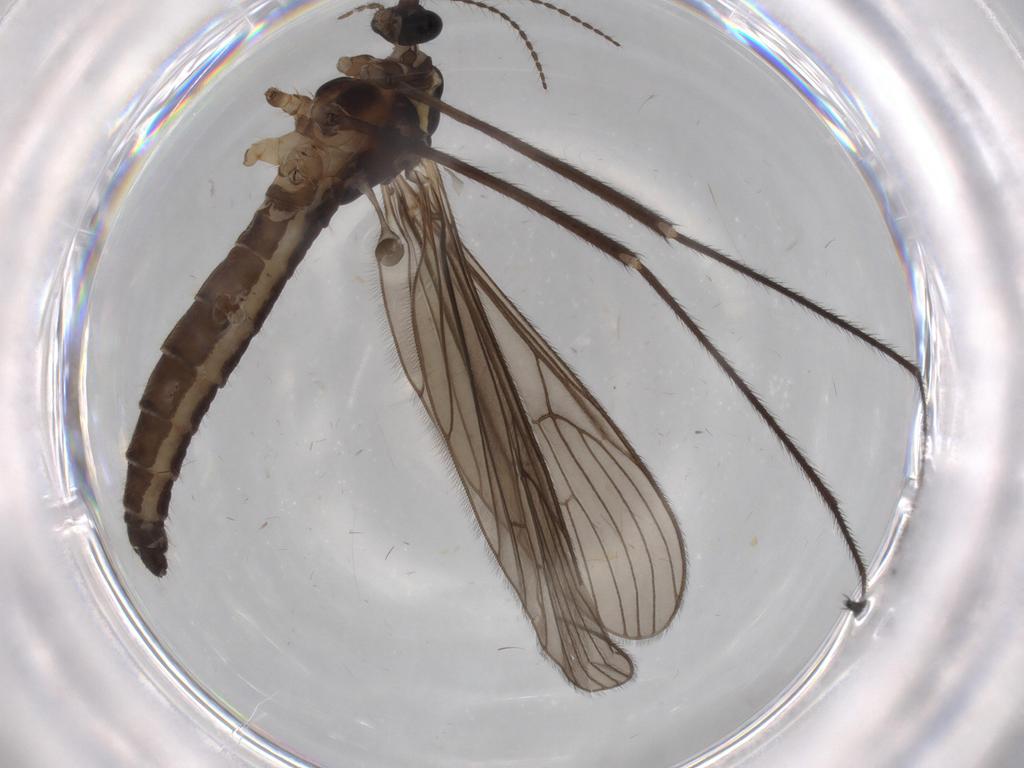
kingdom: Animalia
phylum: Arthropoda
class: Insecta
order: Diptera
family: Limoniidae
